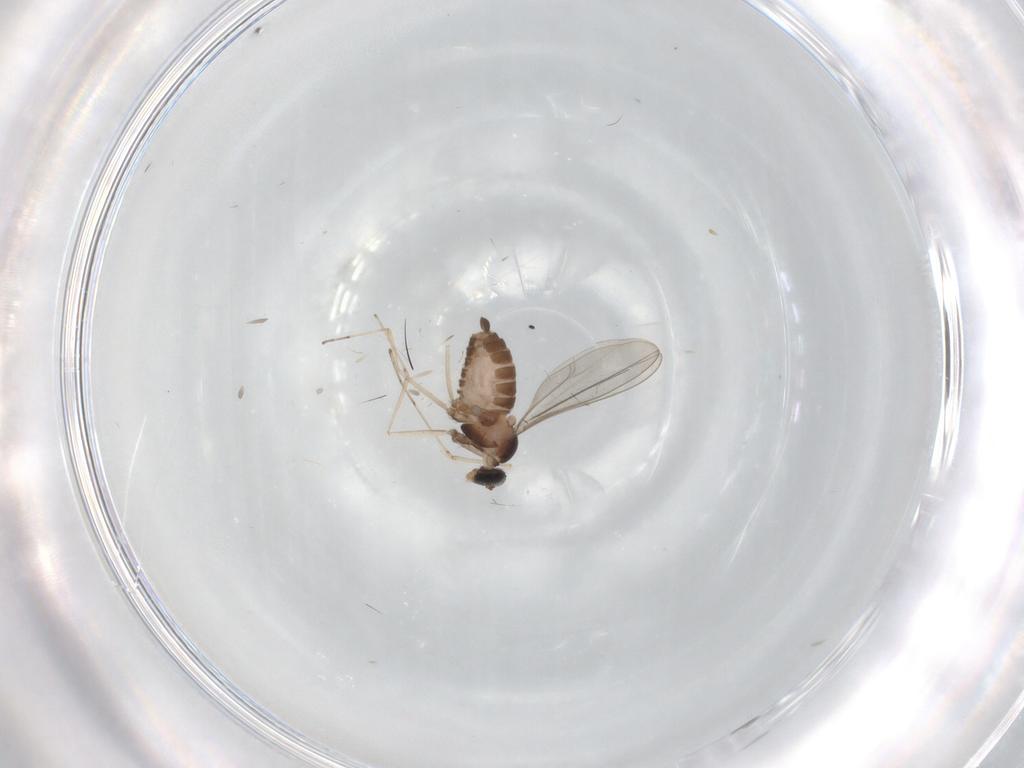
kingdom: Animalia
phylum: Arthropoda
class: Insecta
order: Diptera
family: Cecidomyiidae
